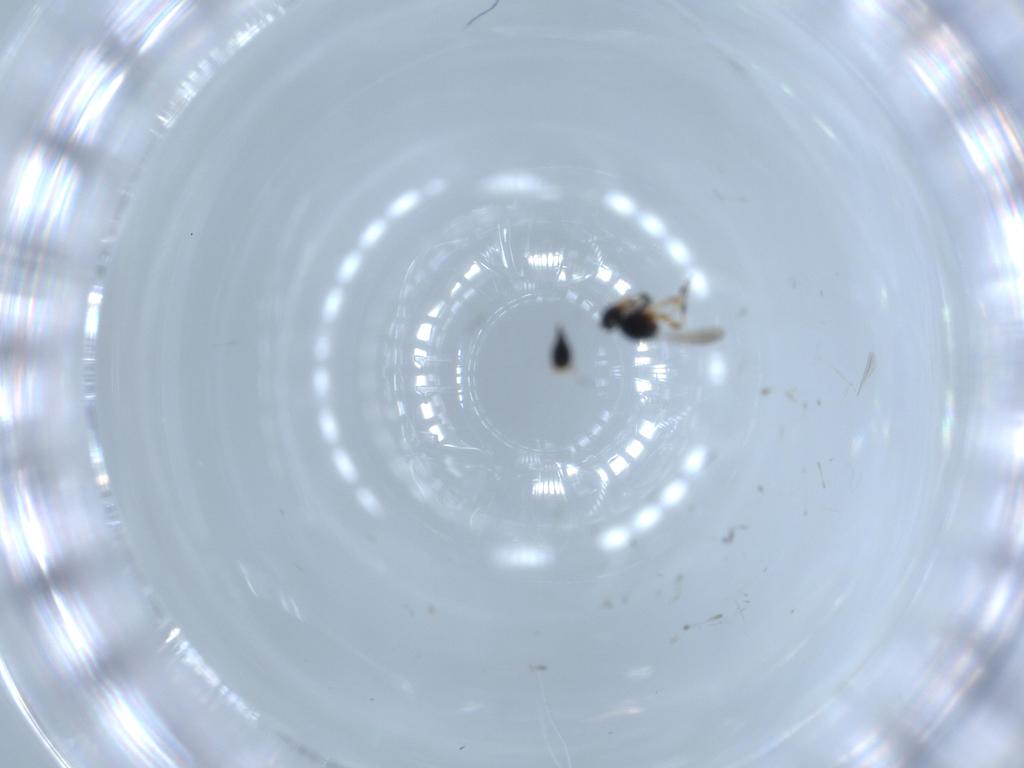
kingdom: Animalia
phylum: Arthropoda
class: Insecta
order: Hymenoptera
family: Platygastridae
